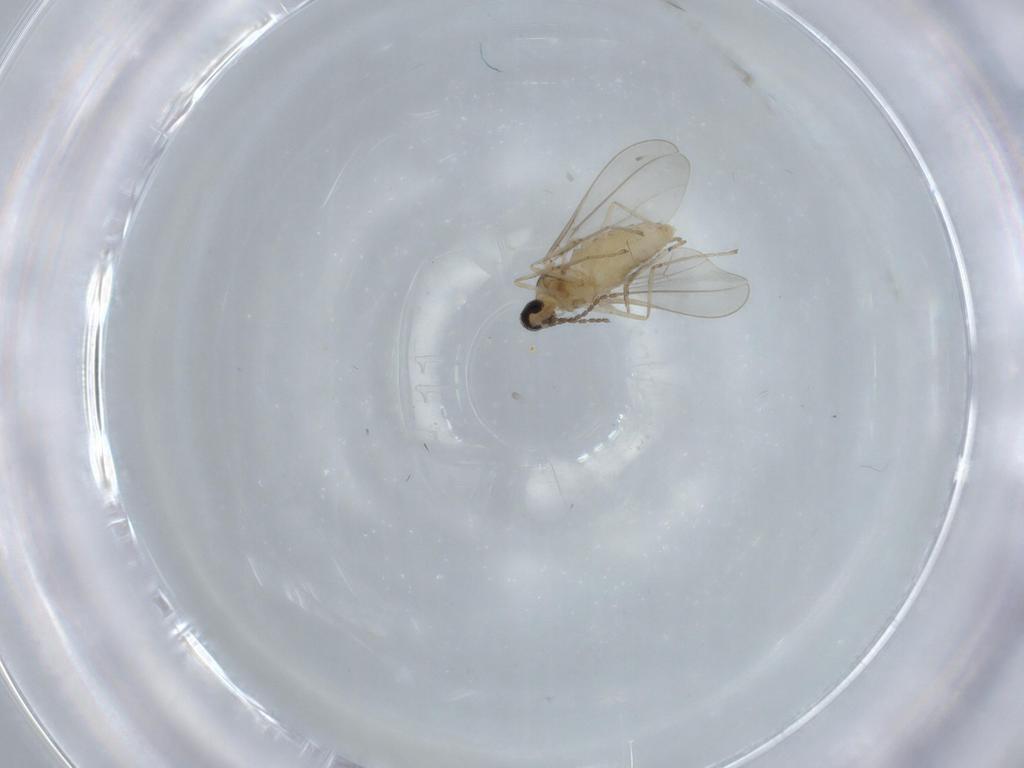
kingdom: Animalia
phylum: Arthropoda
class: Insecta
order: Diptera
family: Cecidomyiidae
